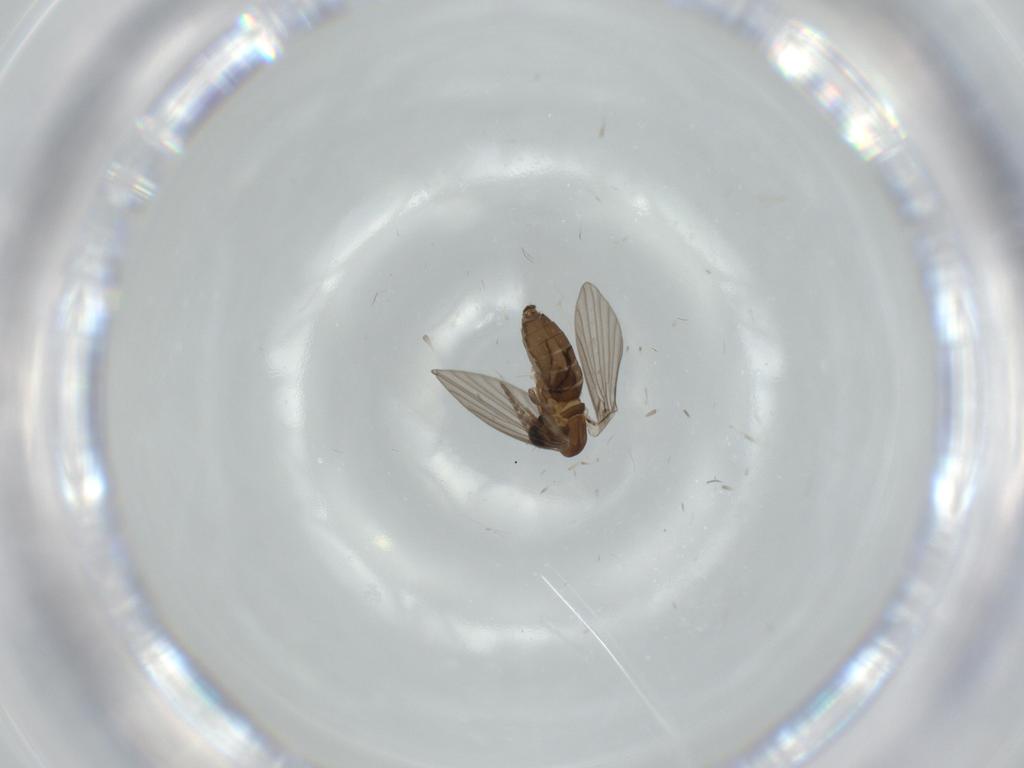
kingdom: Animalia
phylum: Arthropoda
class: Insecta
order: Diptera
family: Psychodidae
